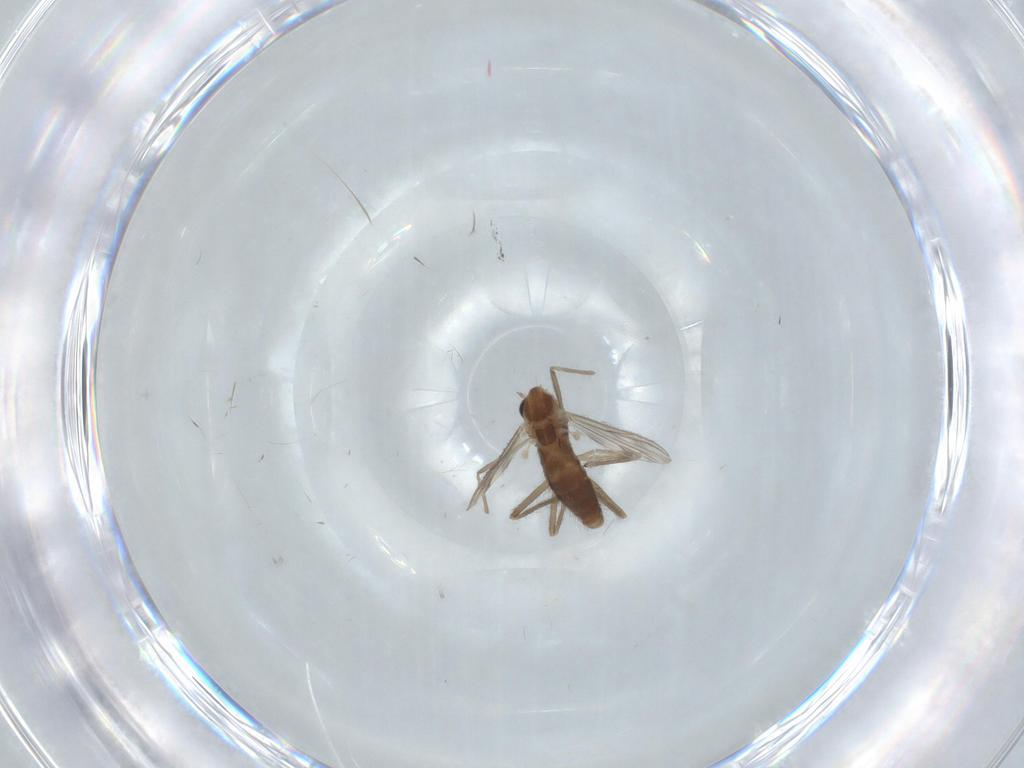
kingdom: Animalia
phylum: Arthropoda
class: Insecta
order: Diptera
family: Chironomidae
